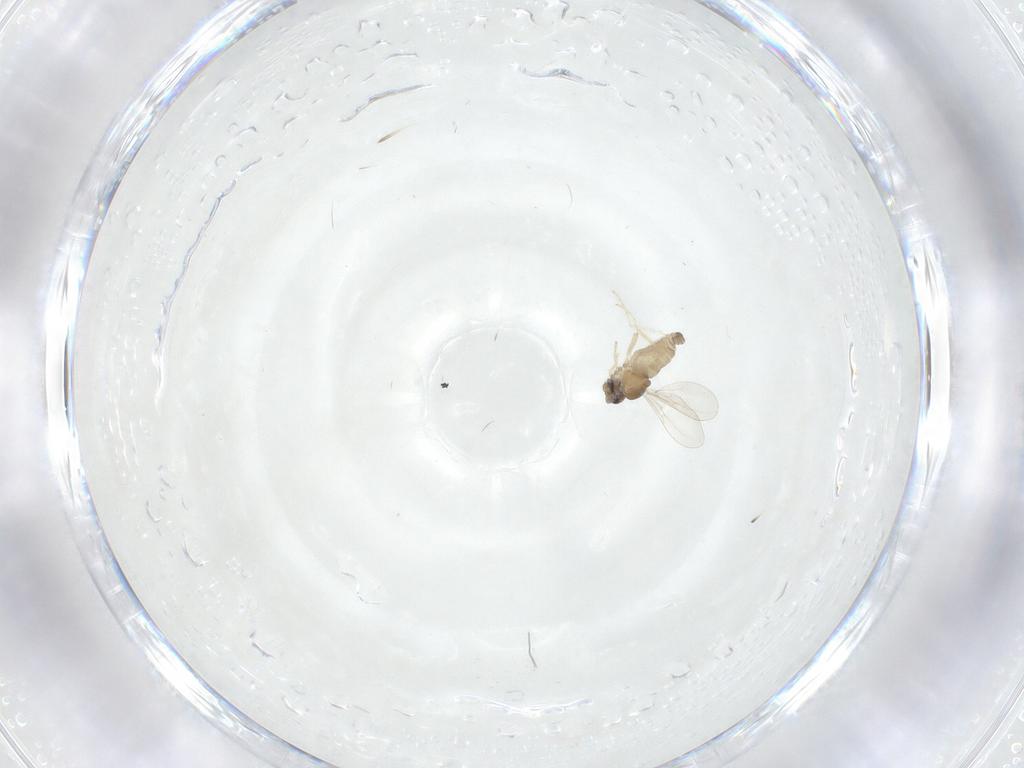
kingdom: Animalia
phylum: Arthropoda
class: Insecta
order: Diptera
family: Cecidomyiidae
